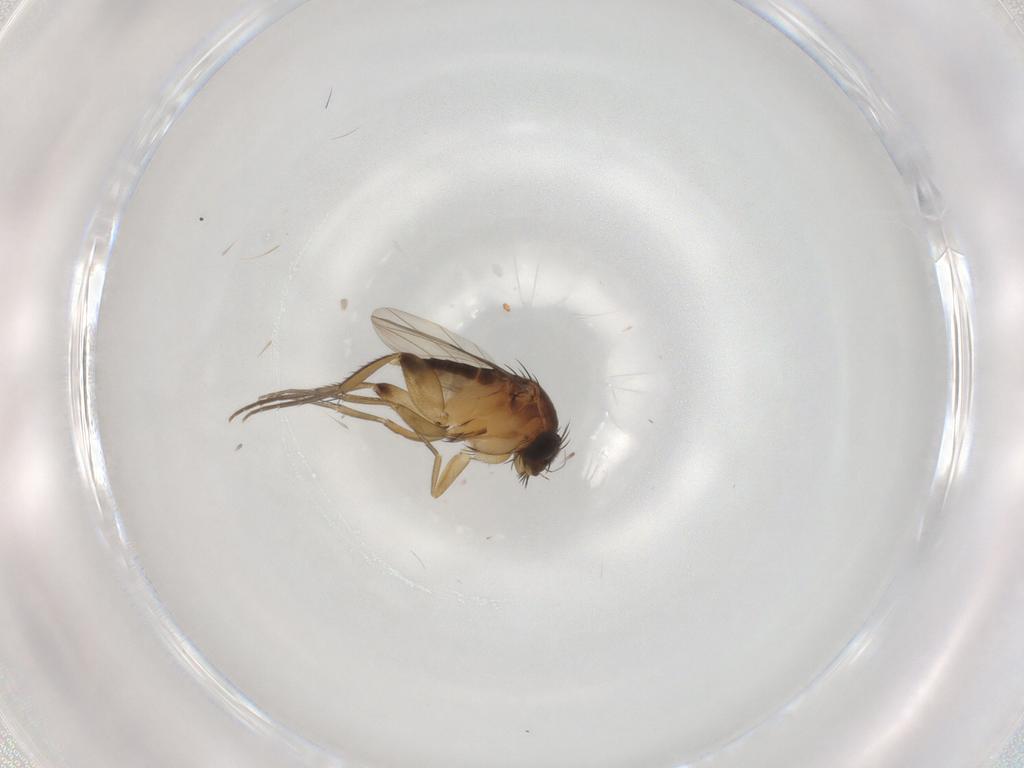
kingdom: Animalia
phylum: Arthropoda
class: Insecta
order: Diptera
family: Phoridae
